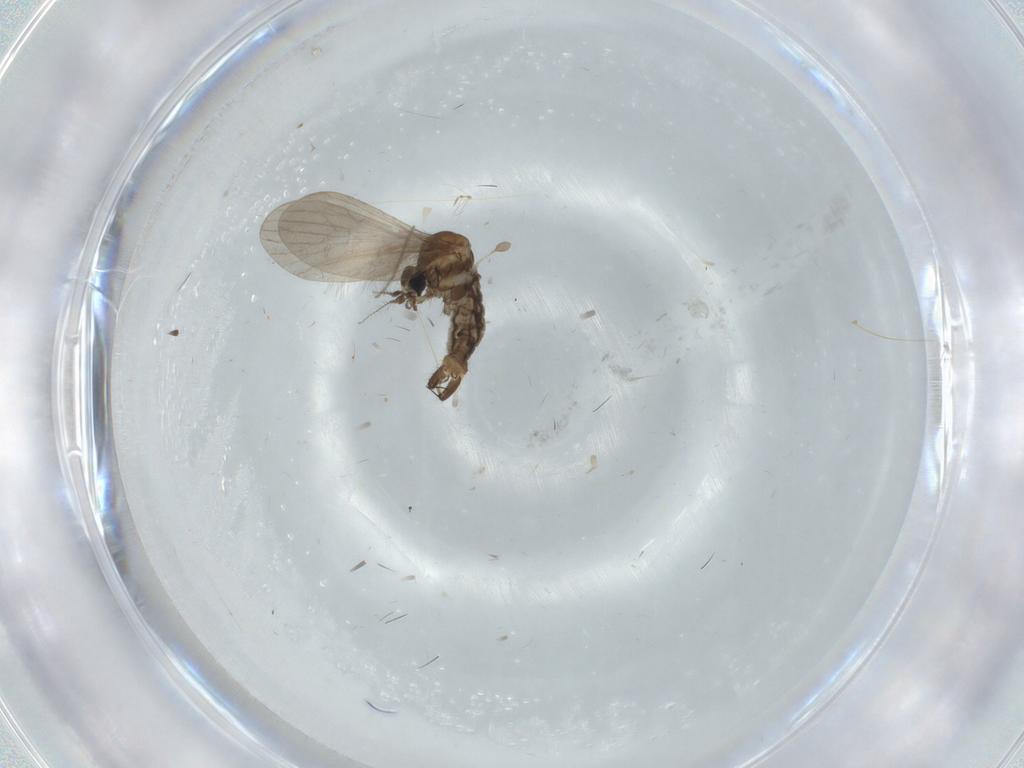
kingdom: Animalia
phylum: Arthropoda
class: Insecta
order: Diptera
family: Limoniidae
